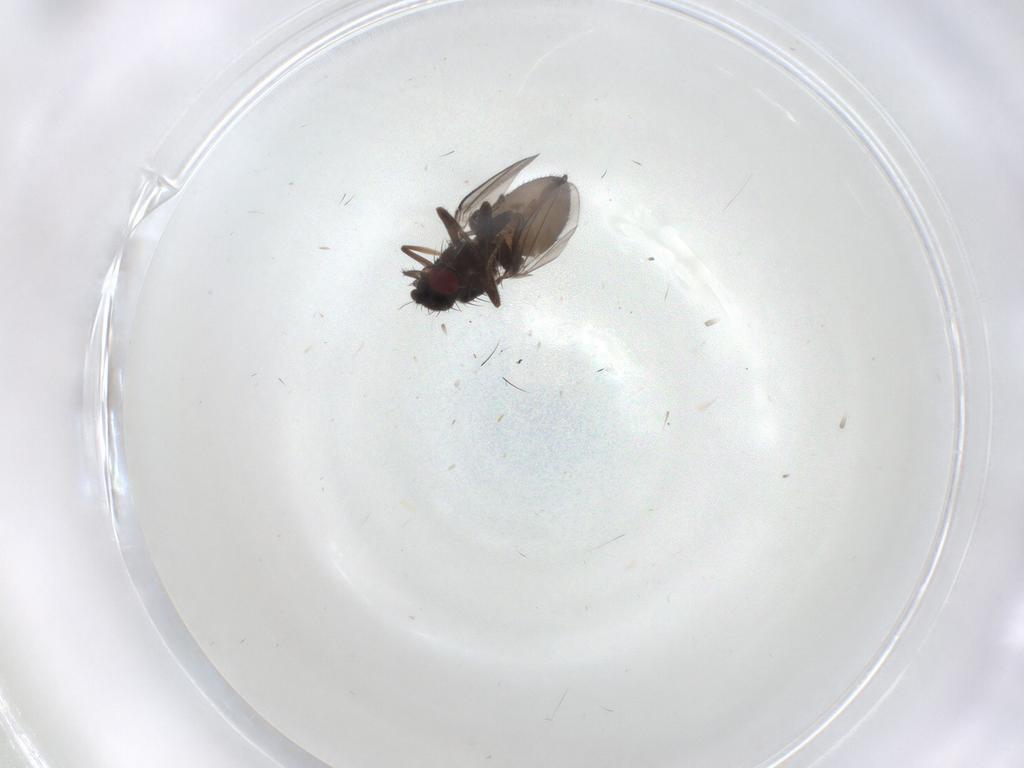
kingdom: Animalia
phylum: Arthropoda
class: Insecta
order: Diptera
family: Milichiidae
